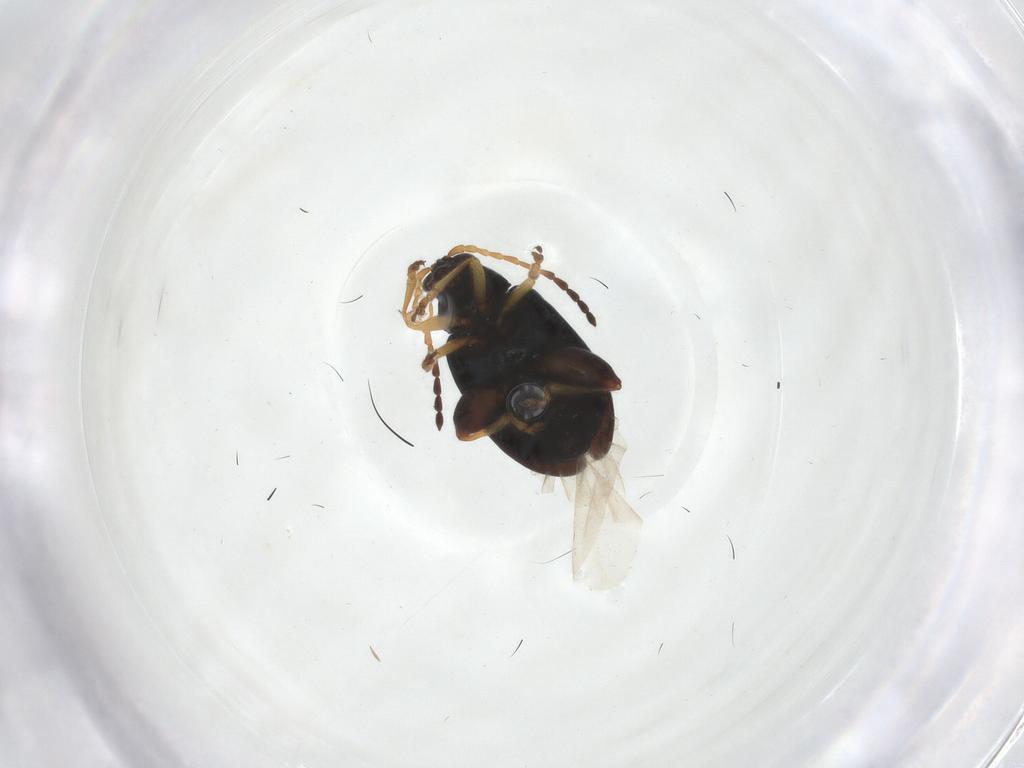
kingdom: Animalia
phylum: Arthropoda
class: Insecta
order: Coleoptera
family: Chrysomelidae
